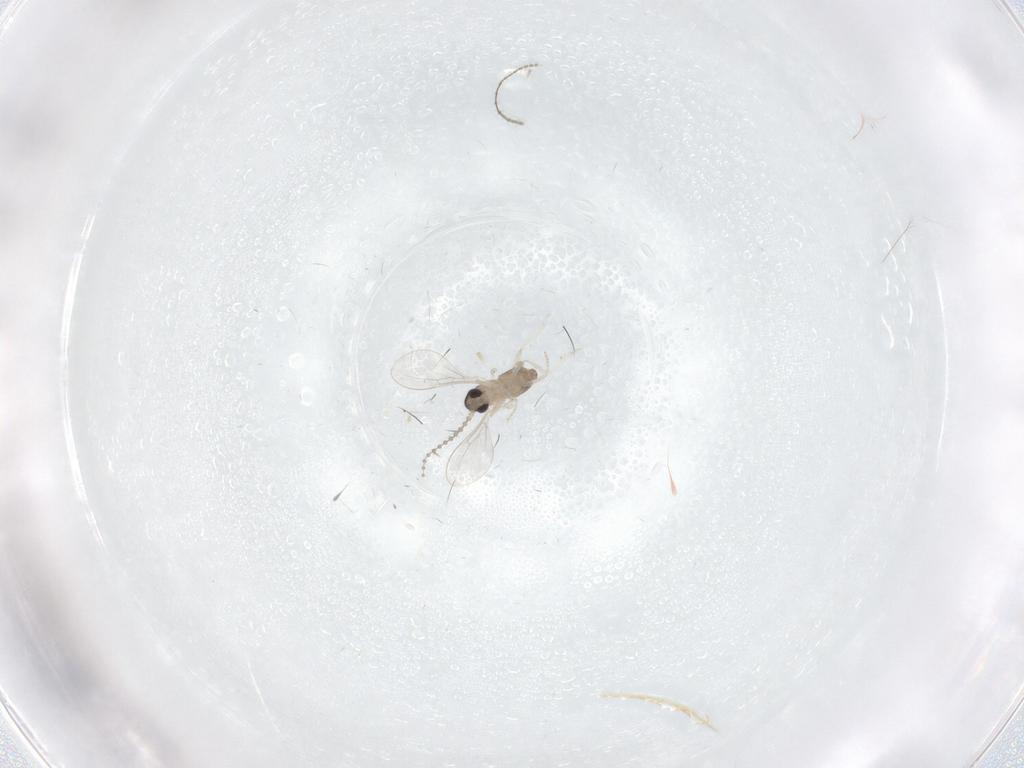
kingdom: Animalia
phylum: Arthropoda
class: Insecta
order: Diptera
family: Cecidomyiidae
